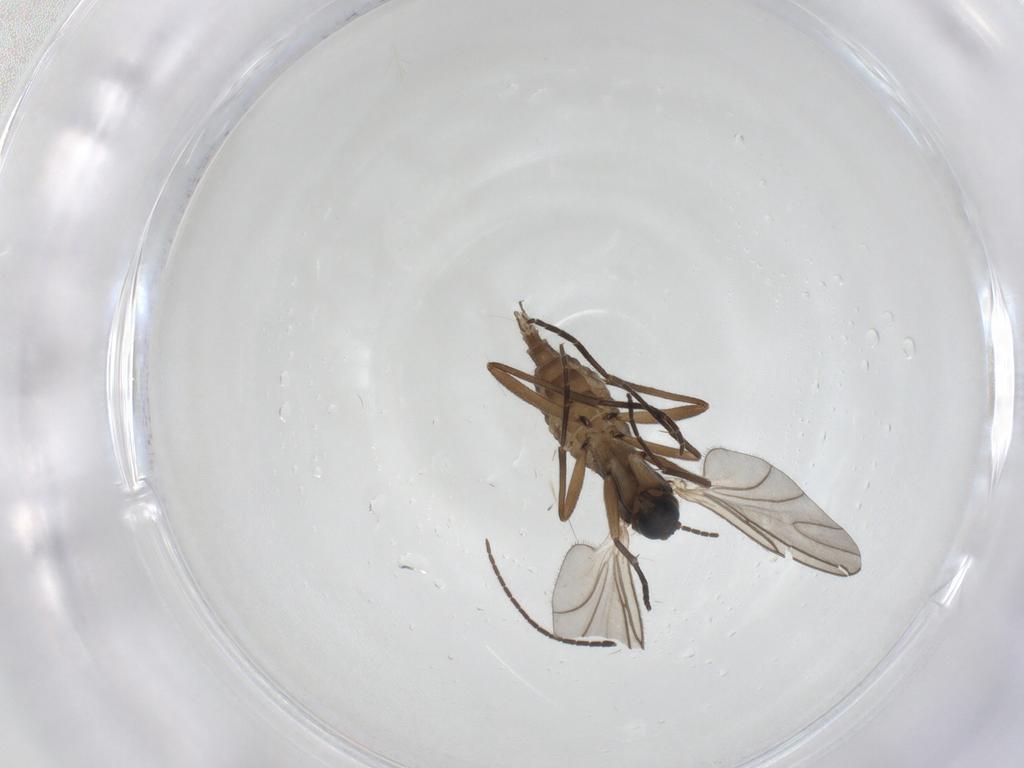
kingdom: Animalia
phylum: Arthropoda
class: Insecta
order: Diptera
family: Sciaridae
